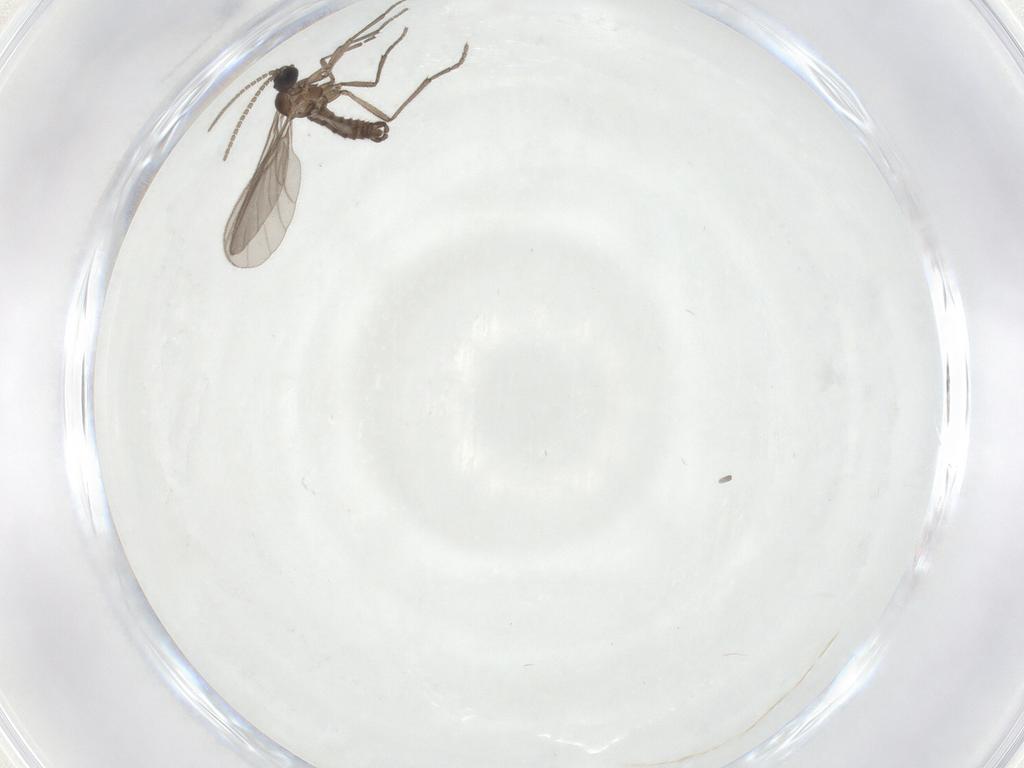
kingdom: Animalia
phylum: Arthropoda
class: Insecta
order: Diptera
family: Sciaridae
